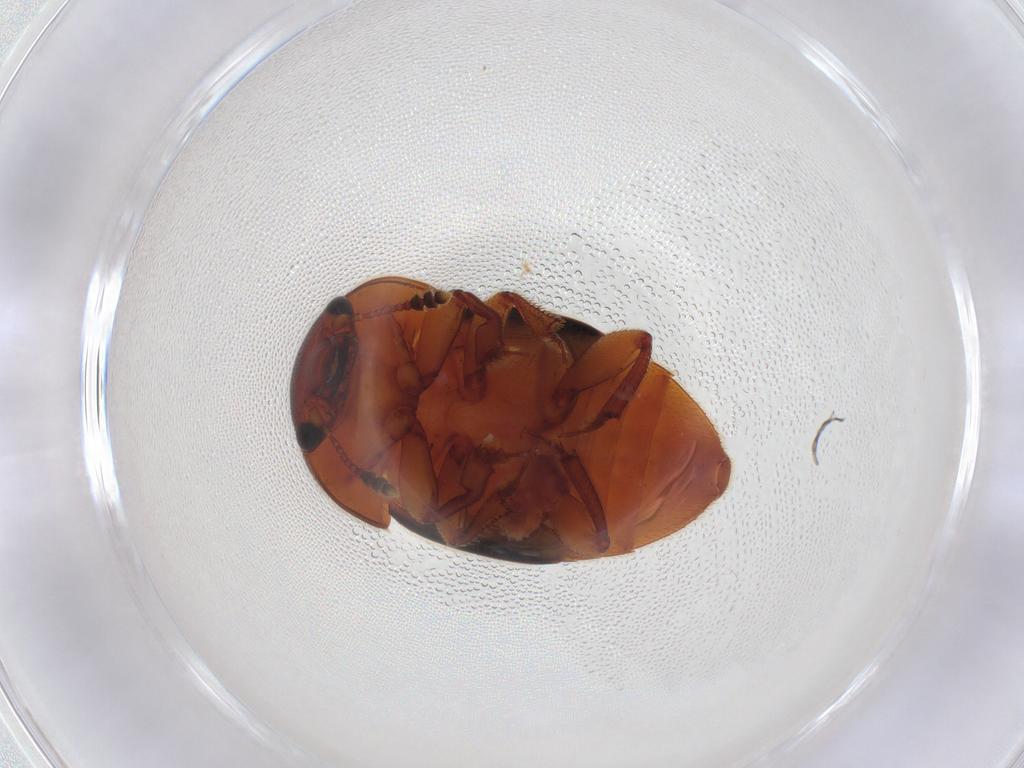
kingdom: Animalia
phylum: Arthropoda
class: Insecta
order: Coleoptera
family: Nitidulidae
